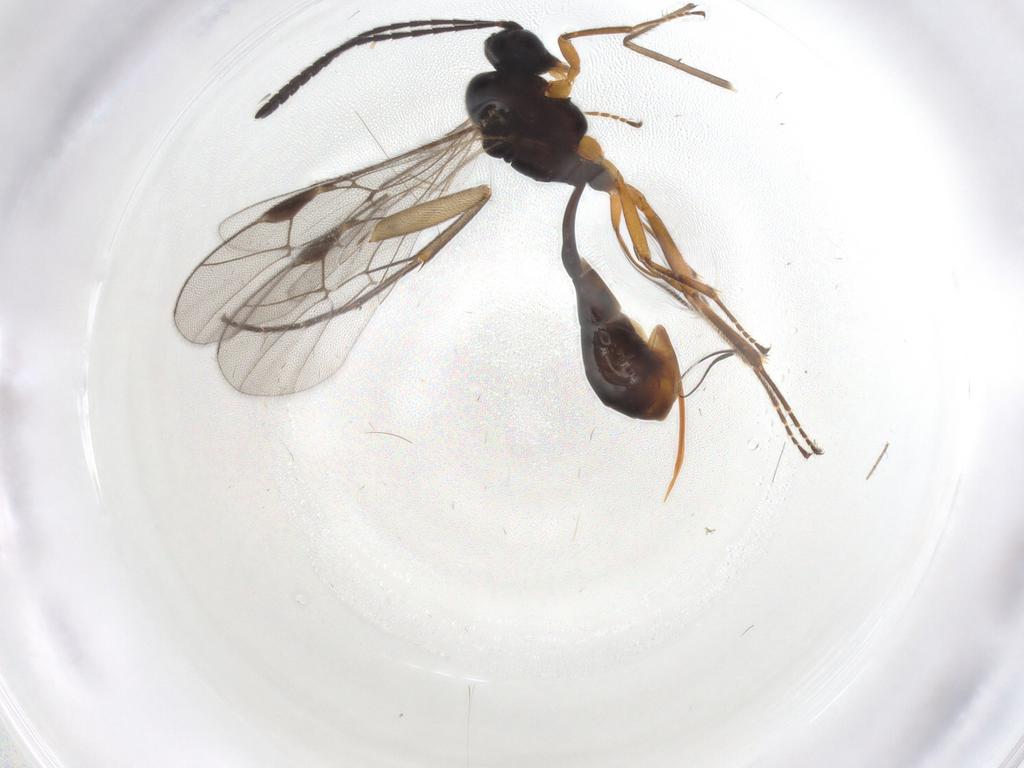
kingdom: Animalia
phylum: Arthropoda
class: Insecta
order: Hymenoptera
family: Ichneumonidae
